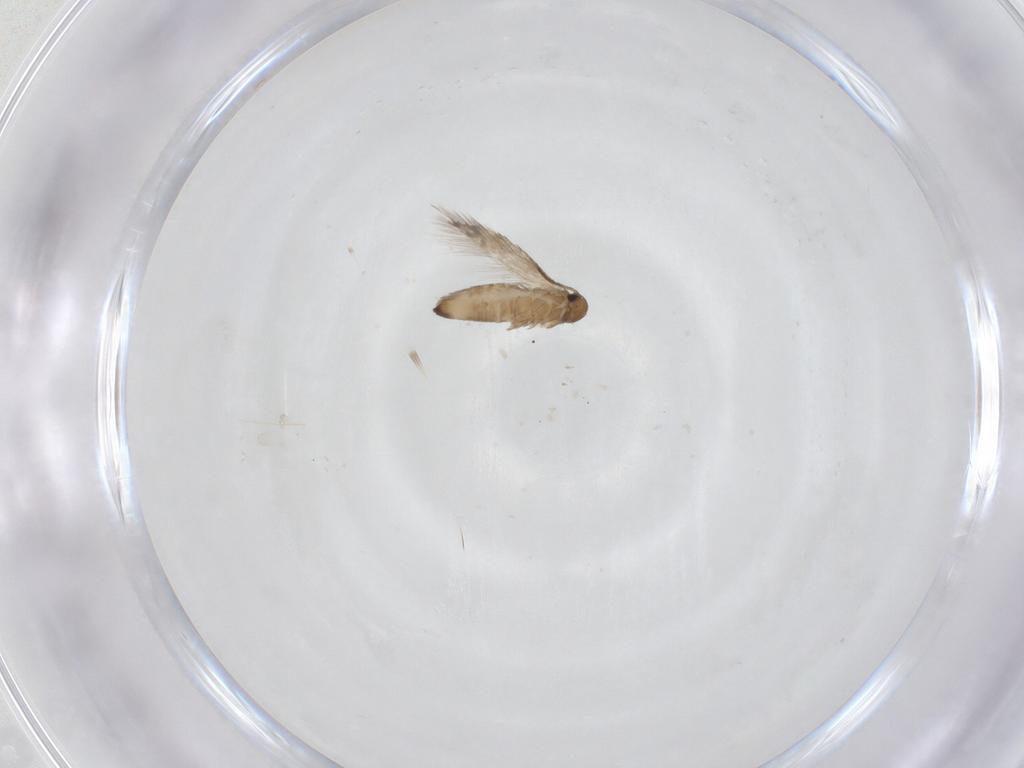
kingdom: Animalia
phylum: Arthropoda
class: Insecta
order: Lepidoptera
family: Heliozelidae
